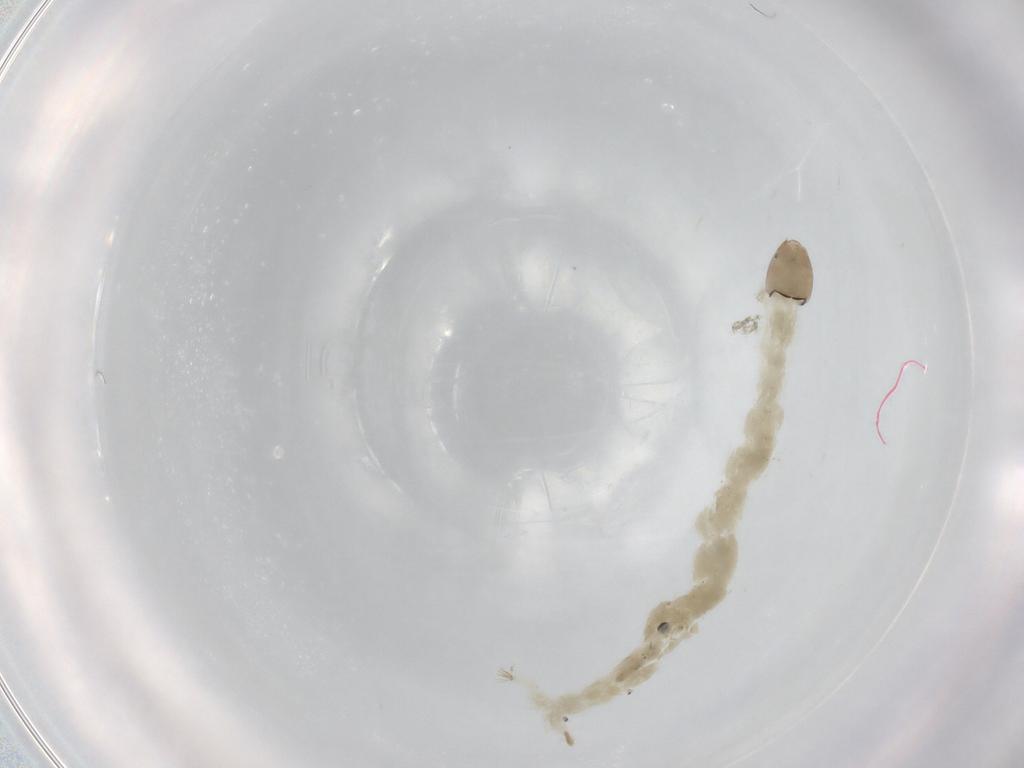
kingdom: Animalia
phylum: Arthropoda
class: Insecta
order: Diptera
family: Chironomidae
